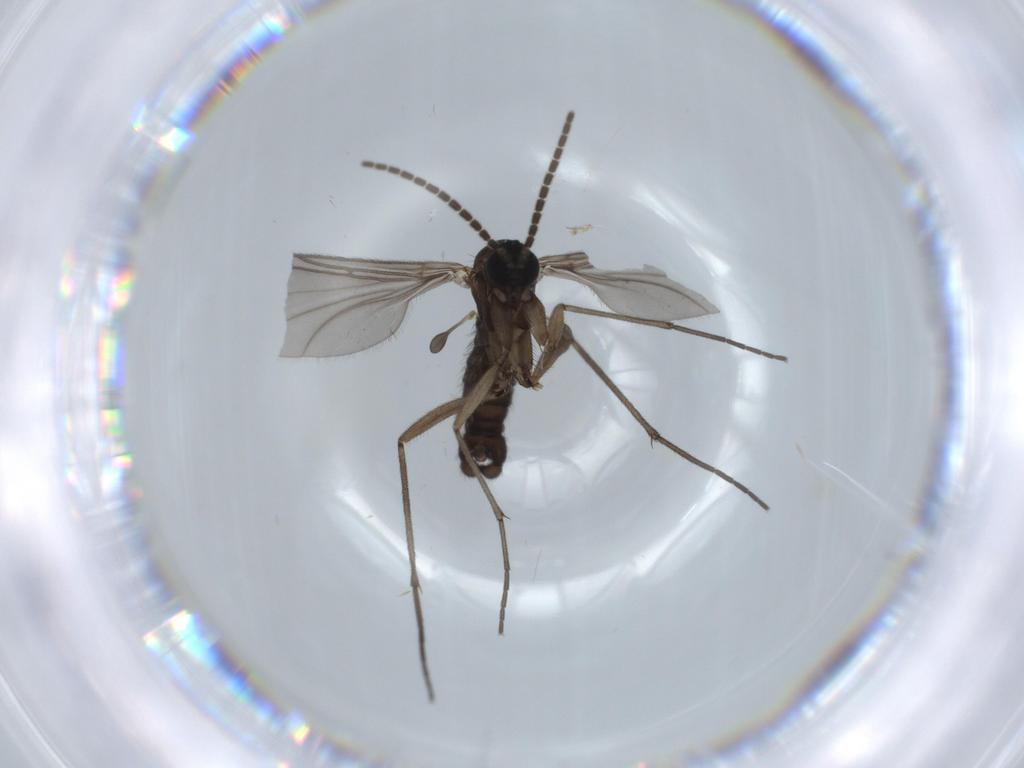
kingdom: Animalia
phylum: Arthropoda
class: Insecta
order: Diptera
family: Sciaridae
